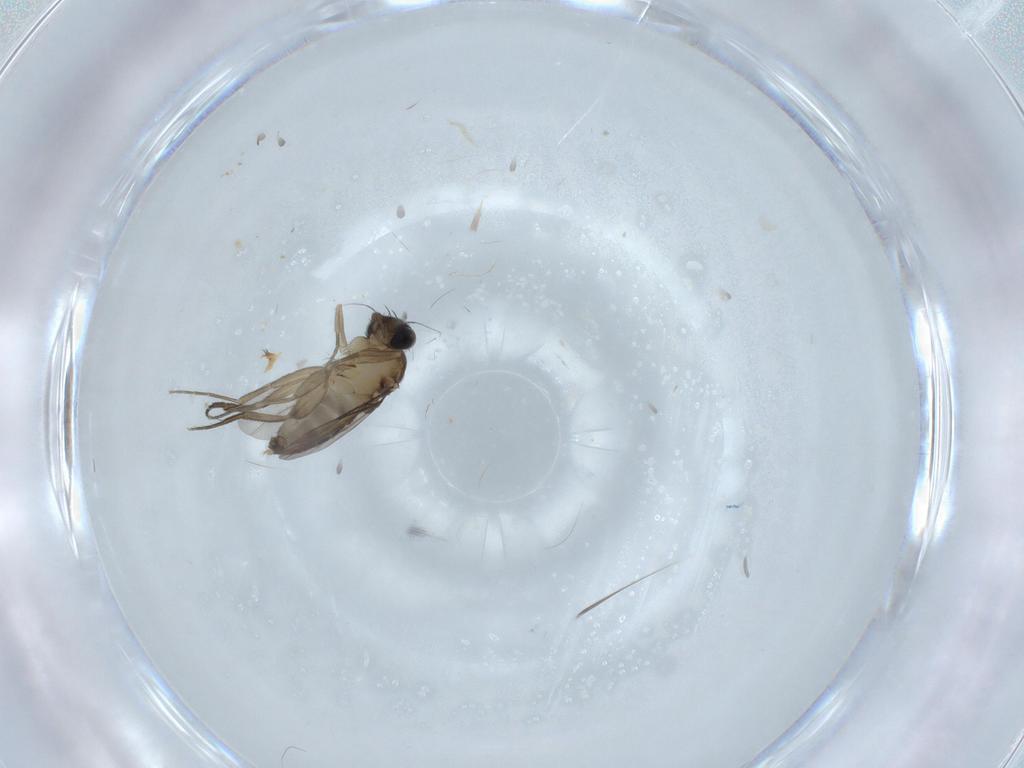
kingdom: Animalia
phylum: Arthropoda
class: Insecta
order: Diptera
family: Phoridae
